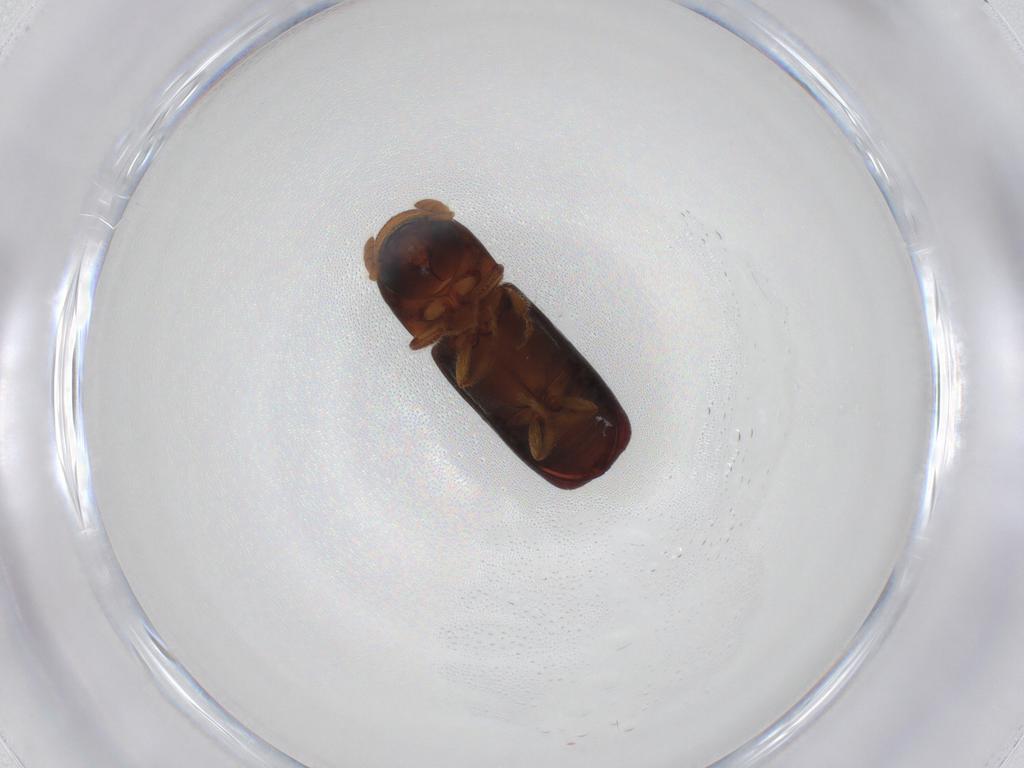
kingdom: Animalia
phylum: Arthropoda
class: Insecta
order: Coleoptera
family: Curculionidae
